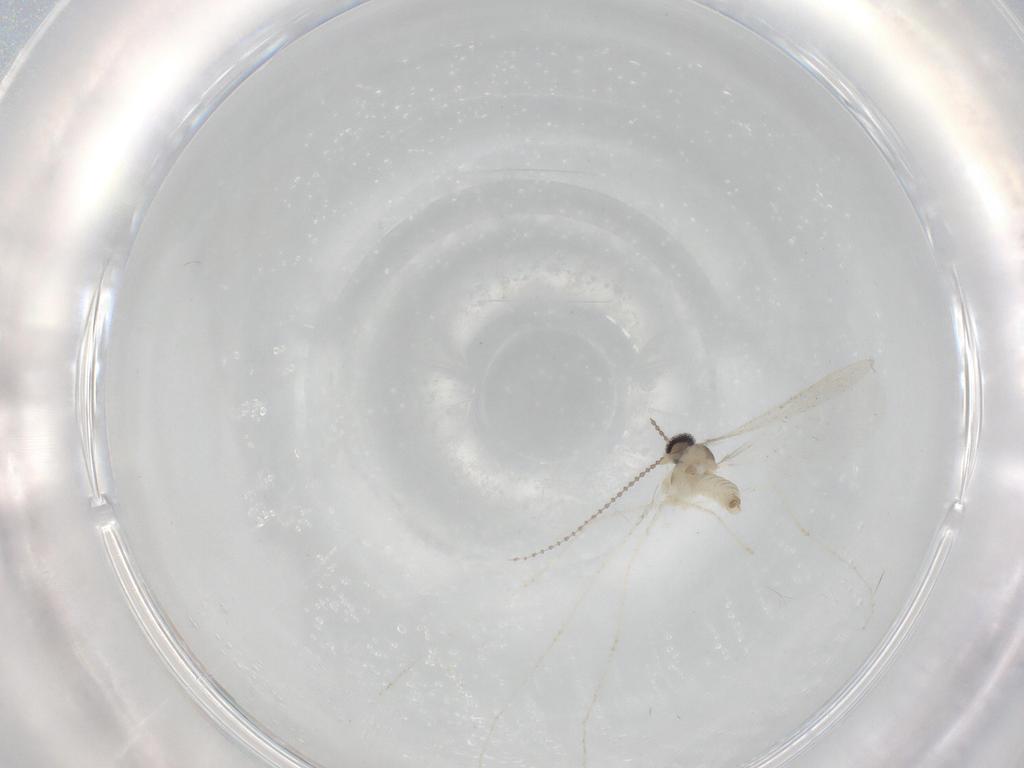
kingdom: Animalia
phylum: Arthropoda
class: Insecta
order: Diptera
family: Cecidomyiidae
